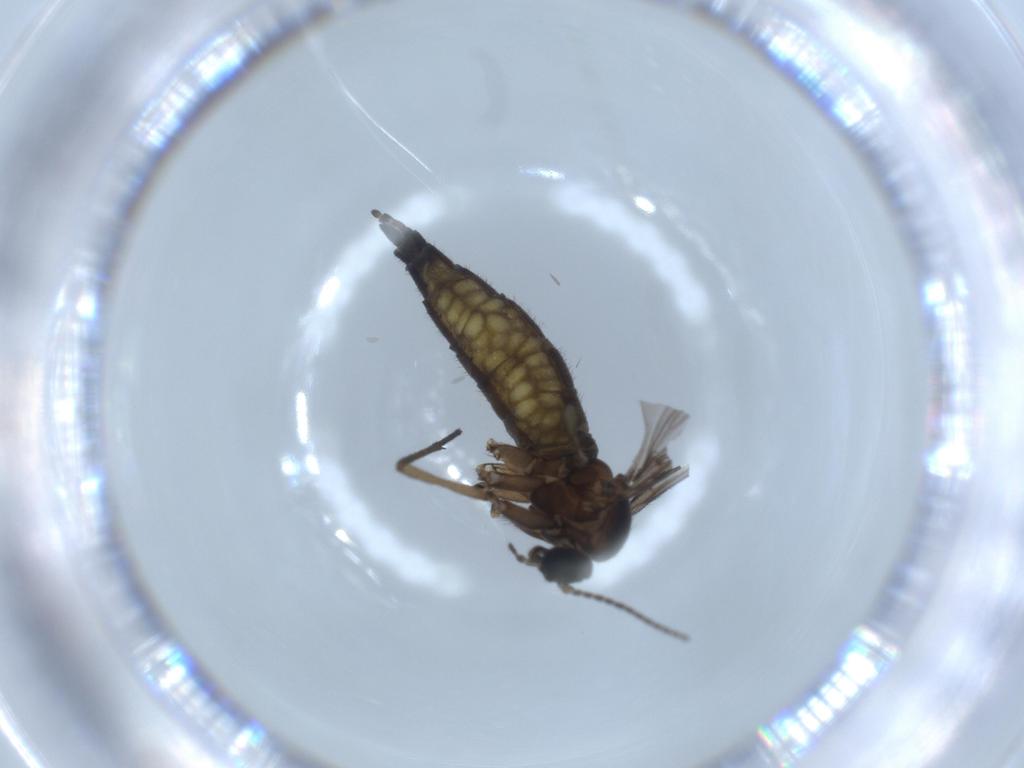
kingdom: Animalia
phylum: Arthropoda
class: Insecta
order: Diptera
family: Sciaridae
